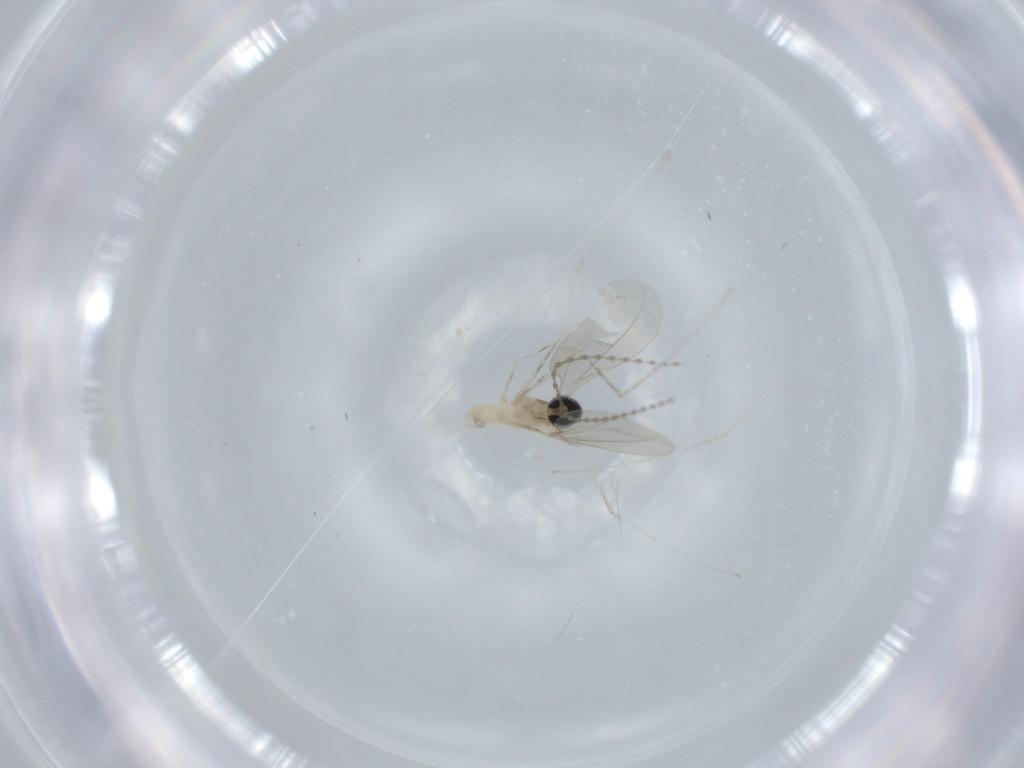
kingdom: Animalia
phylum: Arthropoda
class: Insecta
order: Diptera
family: Cecidomyiidae
